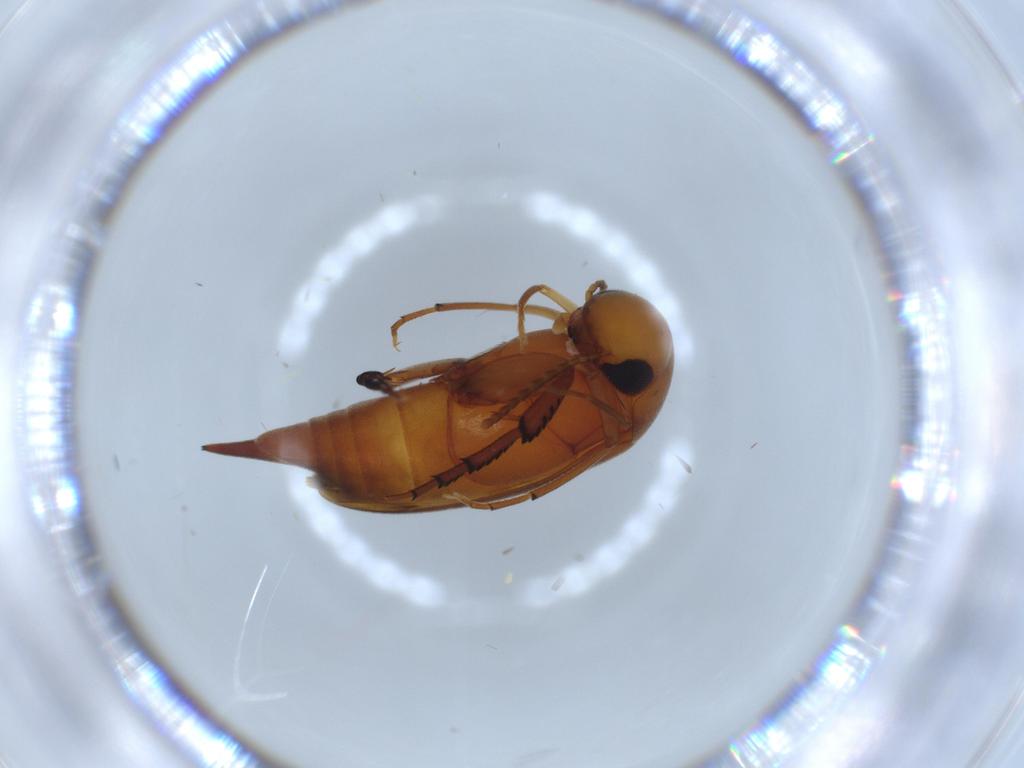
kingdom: Animalia
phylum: Arthropoda
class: Insecta
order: Coleoptera
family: Mordellidae
